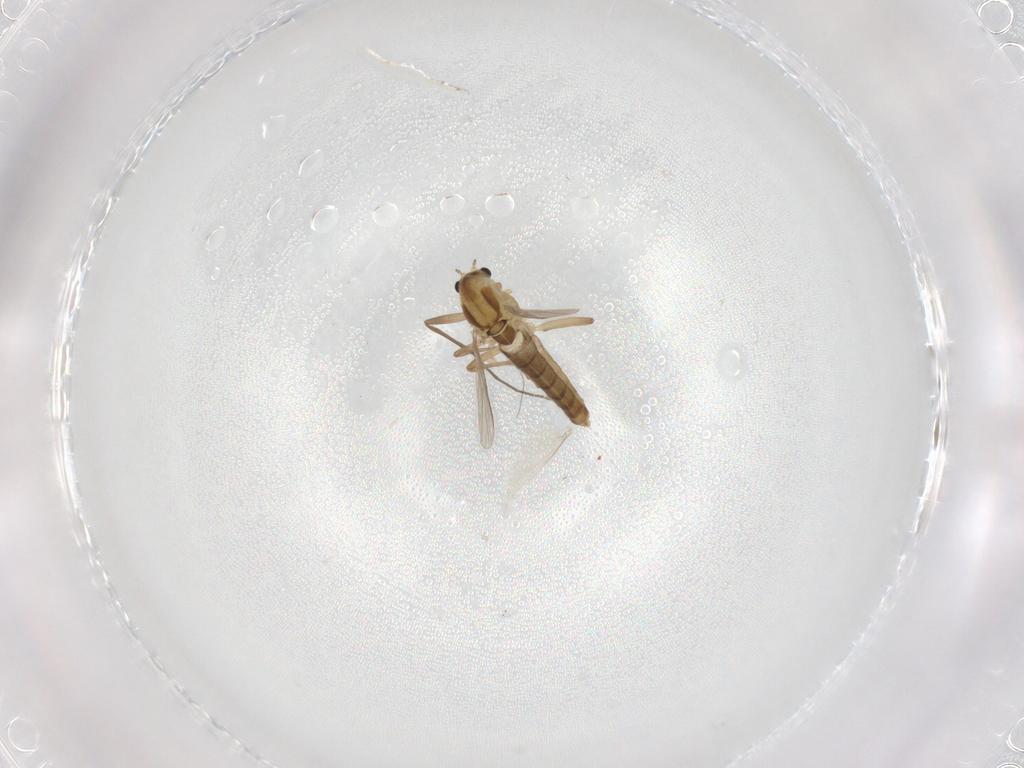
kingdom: Animalia
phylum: Arthropoda
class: Insecta
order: Diptera
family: Chironomidae
